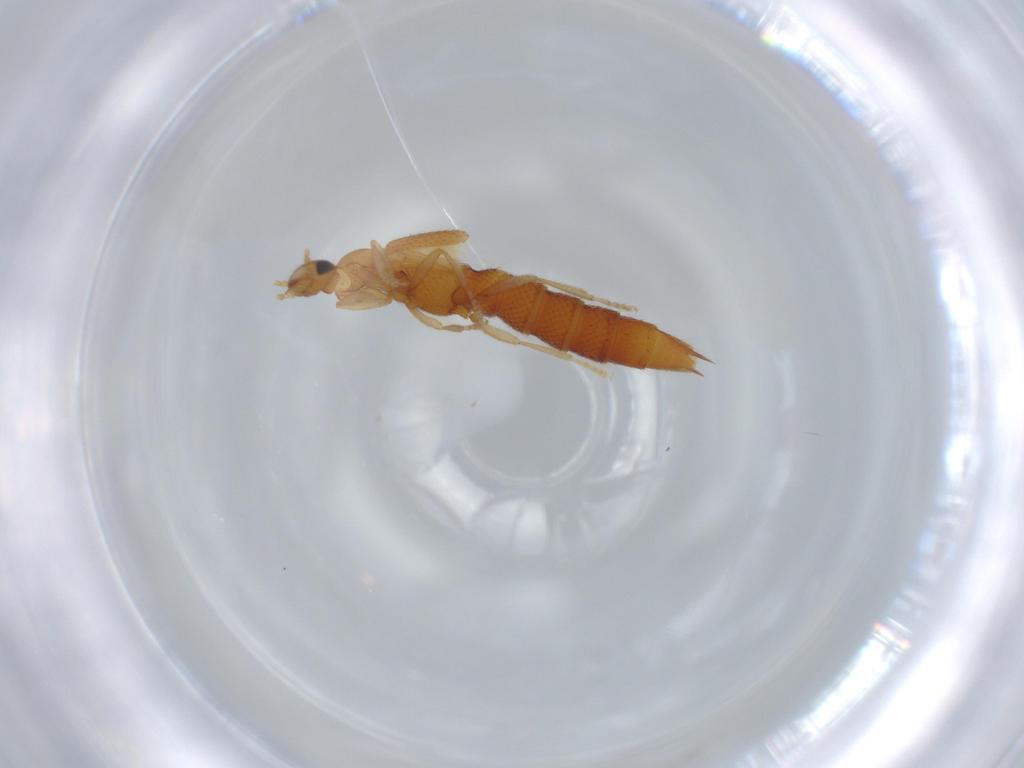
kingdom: Animalia
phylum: Arthropoda
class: Insecta
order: Coleoptera
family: Staphylinidae
